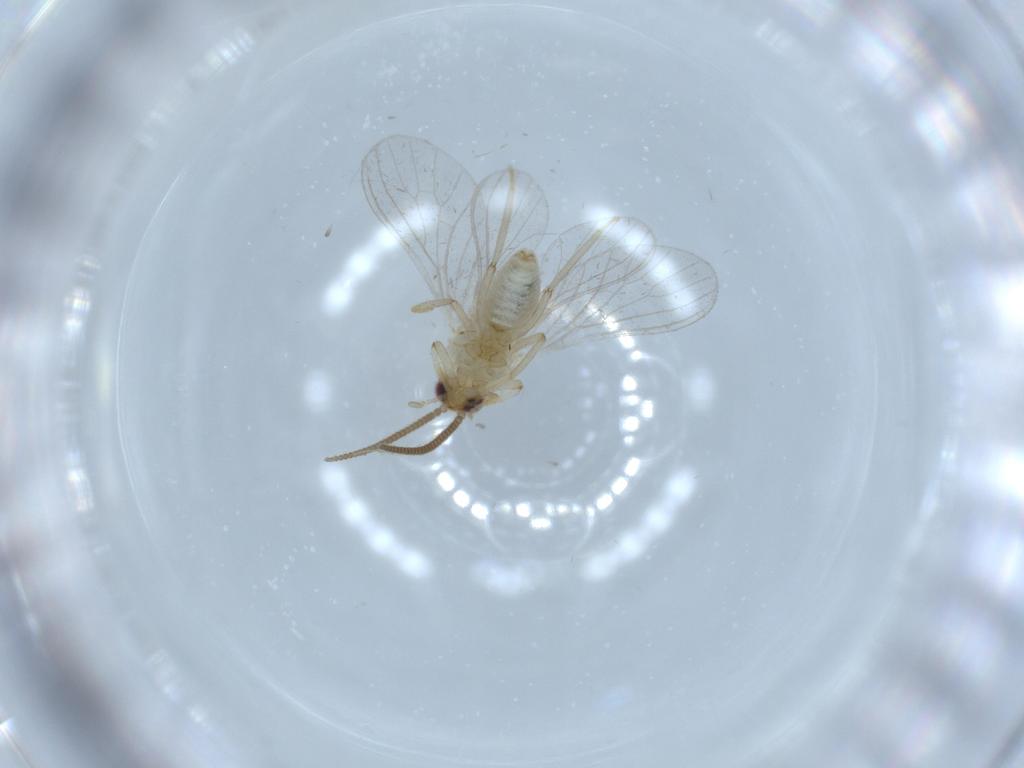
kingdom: Animalia
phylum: Arthropoda
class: Insecta
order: Neuroptera
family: Coniopterygidae
